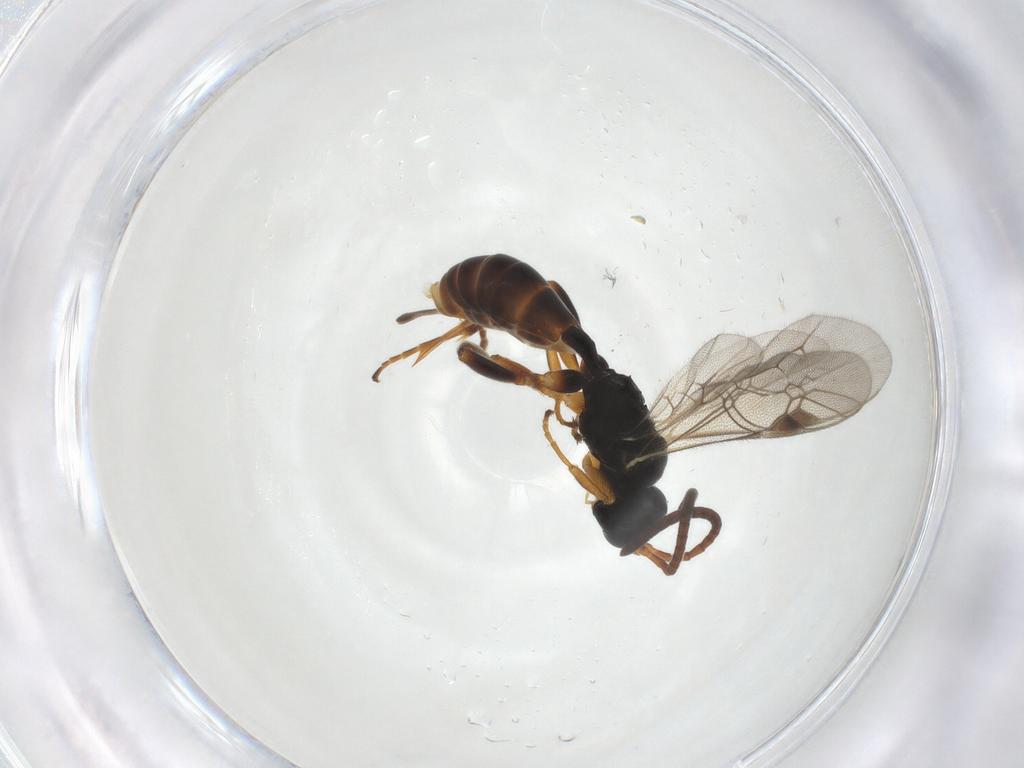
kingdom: Animalia
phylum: Arthropoda
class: Insecta
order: Hymenoptera
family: Ichneumonidae
